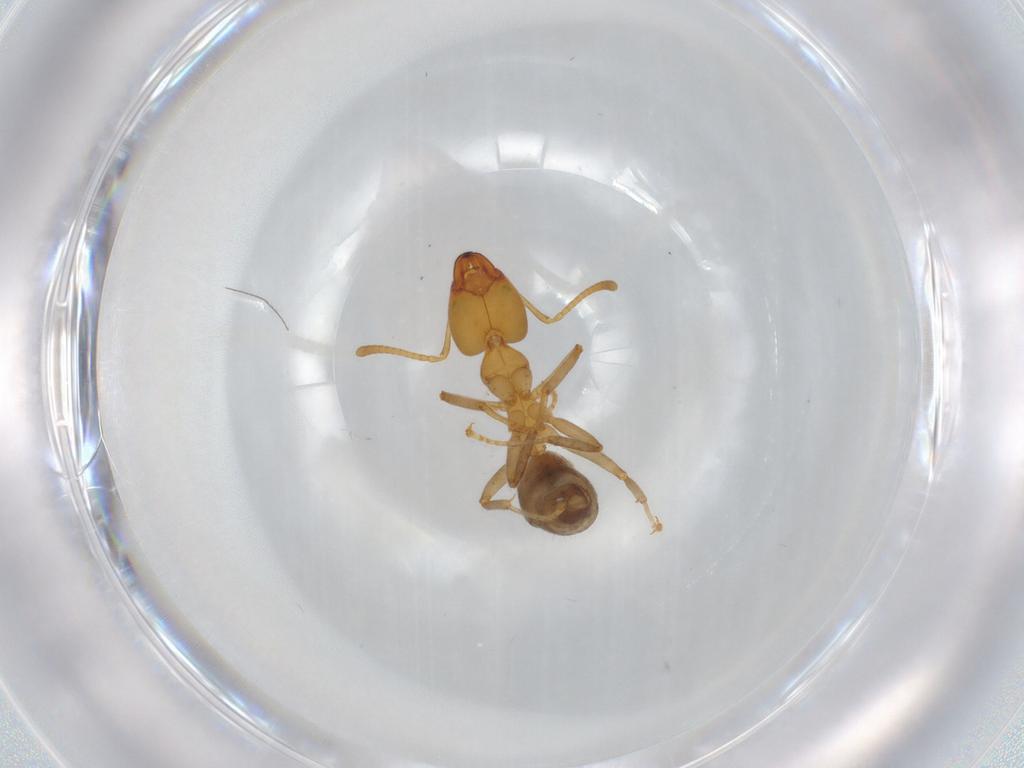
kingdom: Animalia
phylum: Arthropoda
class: Insecta
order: Hymenoptera
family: Formicidae
